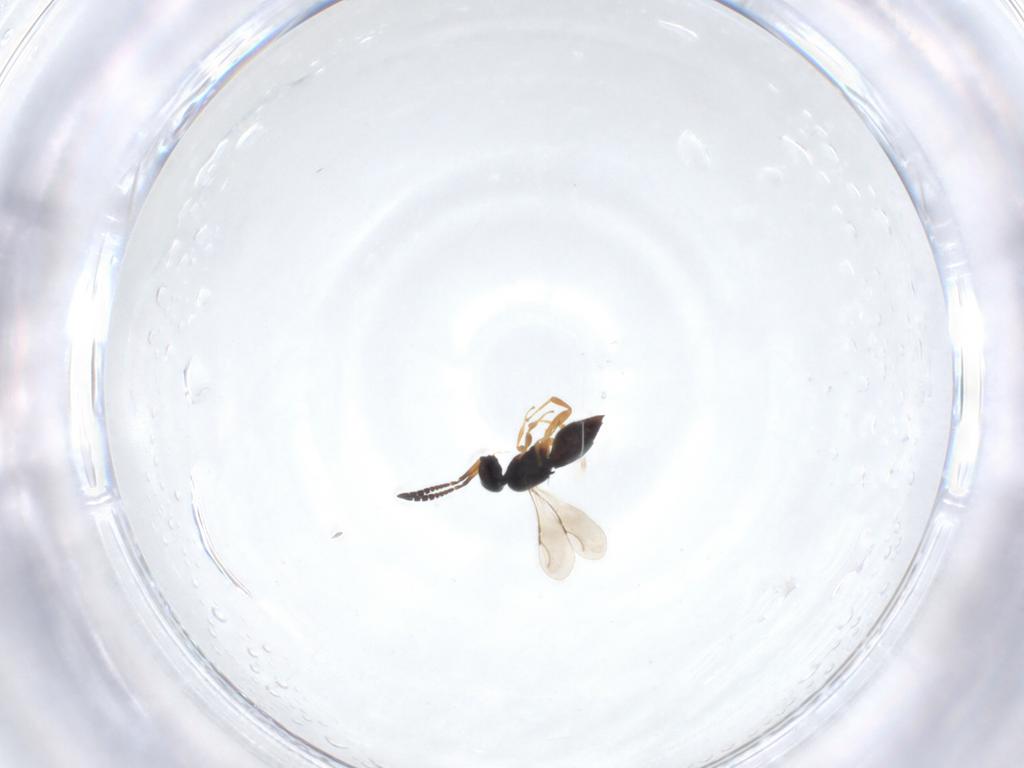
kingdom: Animalia
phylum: Arthropoda
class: Insecta
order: Hymenoptera
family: Ceraphronidae
